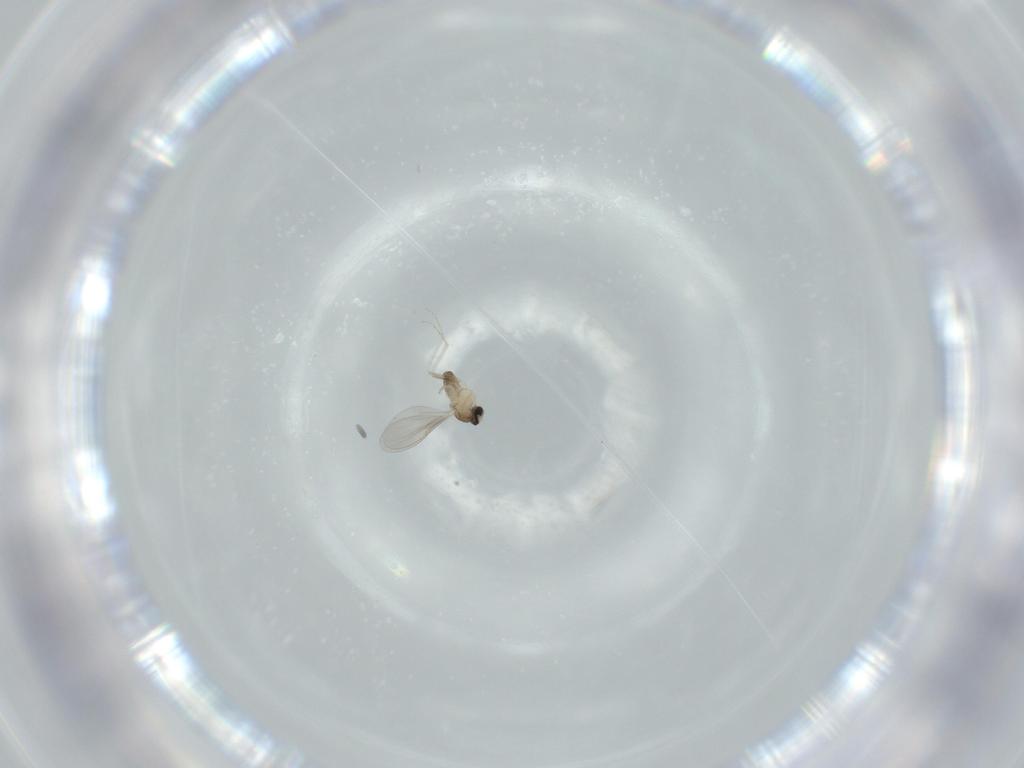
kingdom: Animalia
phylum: Arthropoda
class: Insecta
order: Diptera
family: Cecidomyiidae
